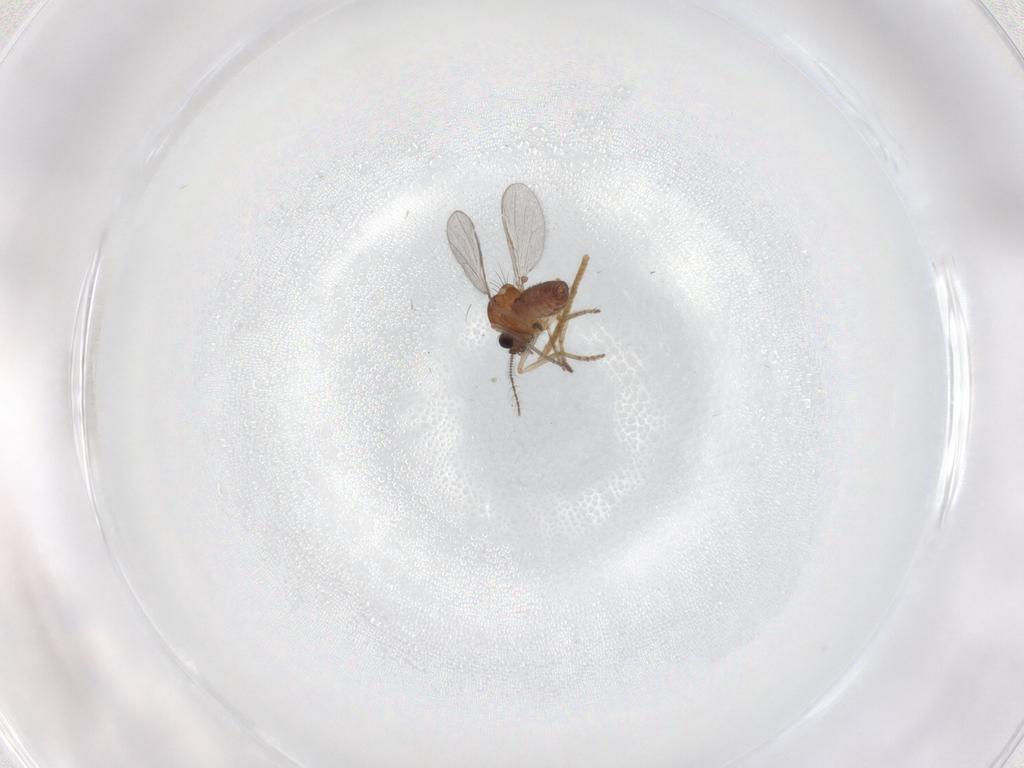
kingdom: Animalia
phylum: Arthropoda
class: Insecta
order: Diptera
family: Ceratopogonidae
